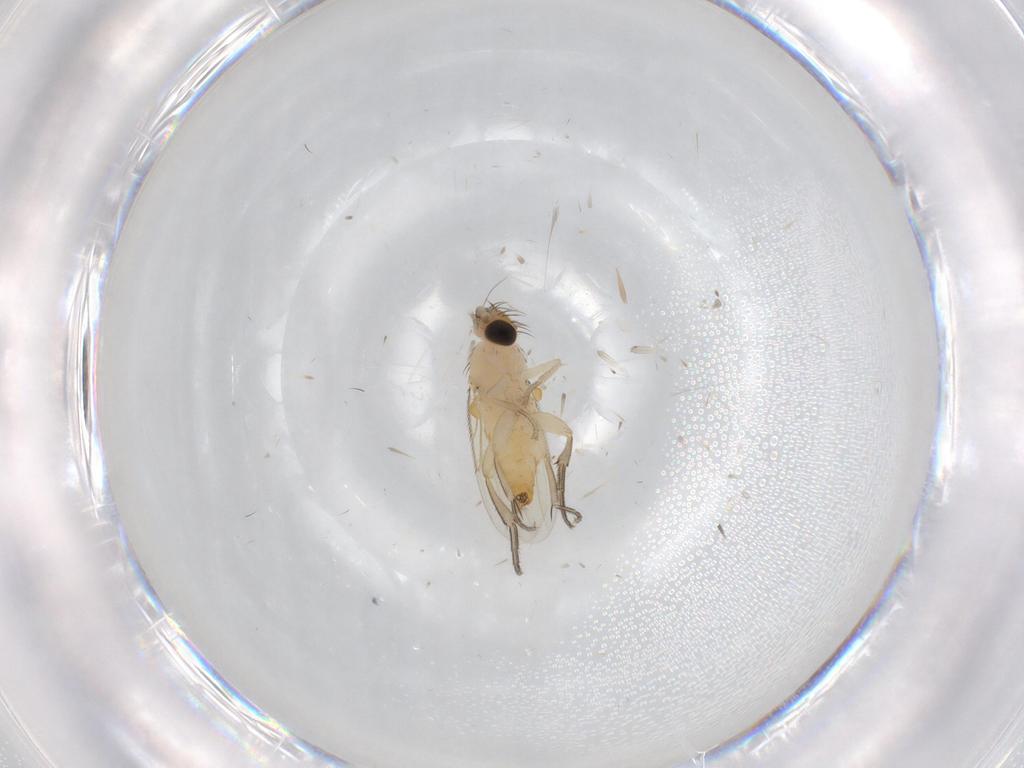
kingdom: Animalia
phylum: Arthropoda
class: Insecta
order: Diptera
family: Phoridae
